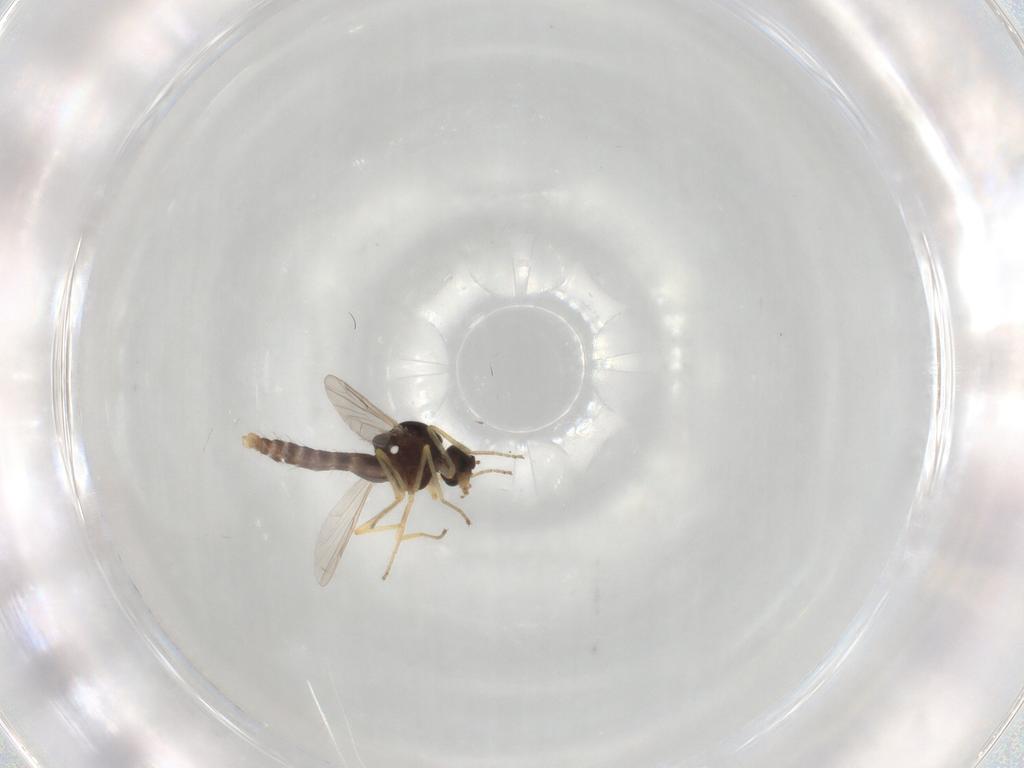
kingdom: Animalia
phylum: Arthropoda
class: Insecta
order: Diptera
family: Ceratopogonidae
